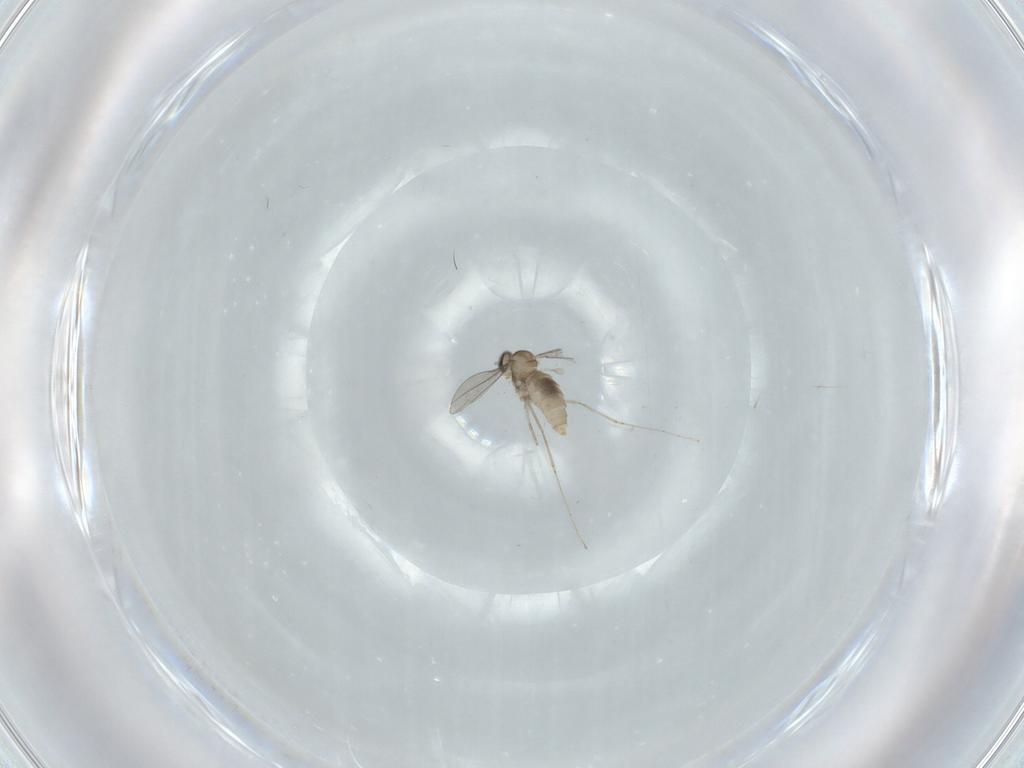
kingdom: Animalia
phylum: Arthropoda
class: Insecta
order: Diptera
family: Cecidomyiidae
